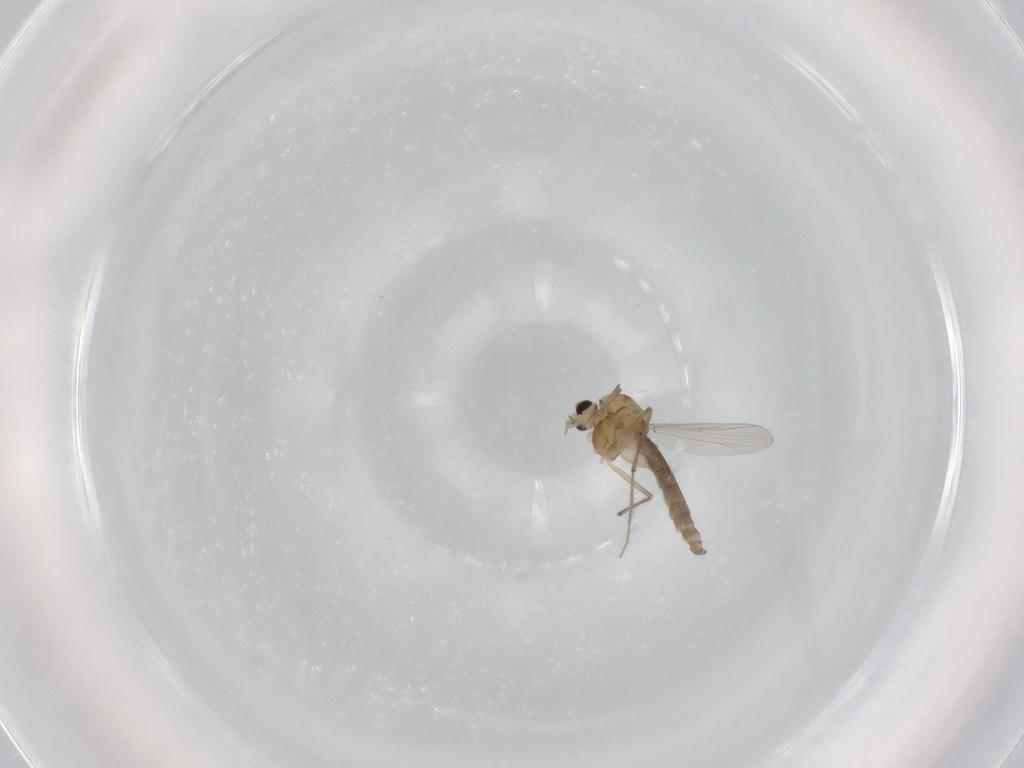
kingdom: Animalia
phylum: Arthropoda
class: Insecta
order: Diptera
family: Chironomidae
